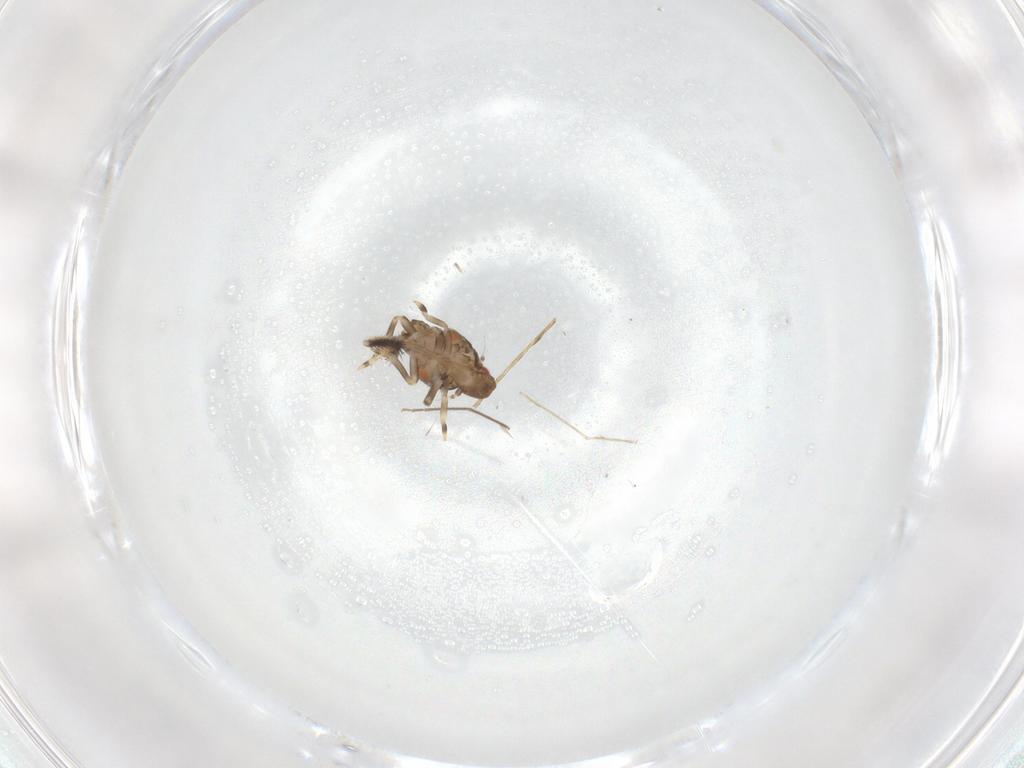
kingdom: Animalia
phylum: Arthropoda
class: Insecta
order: Hemiptera
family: Flatidae
